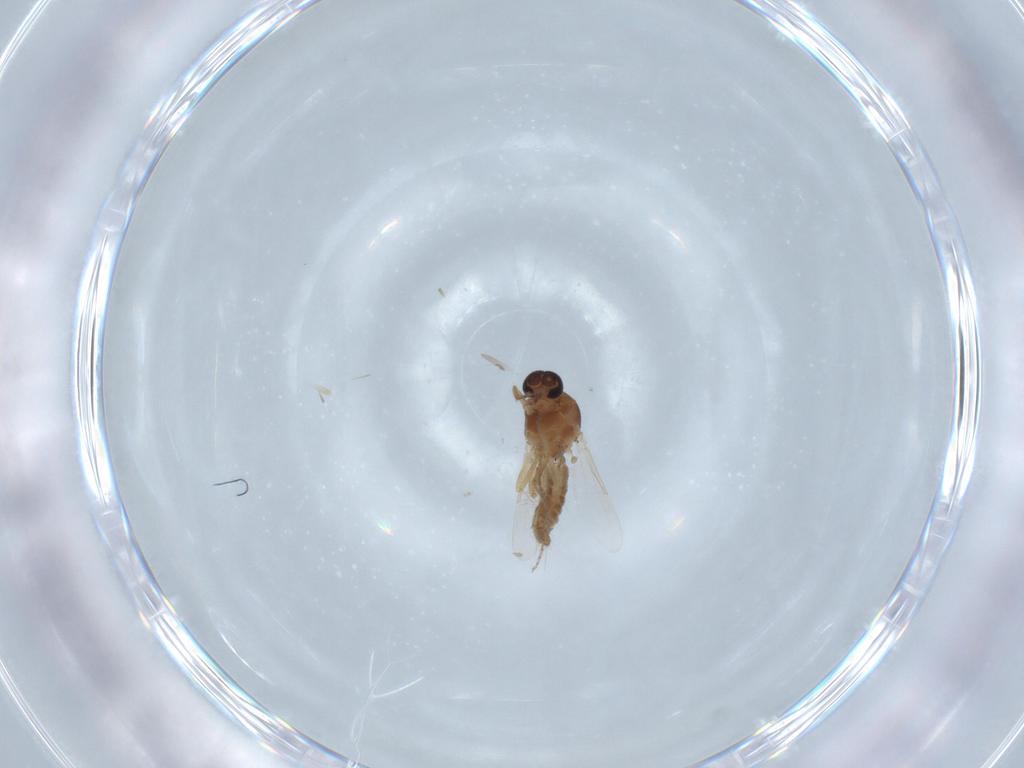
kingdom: Animalia
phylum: Arthropoda
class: Insecta
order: Diptera
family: Ceratopogonidae
